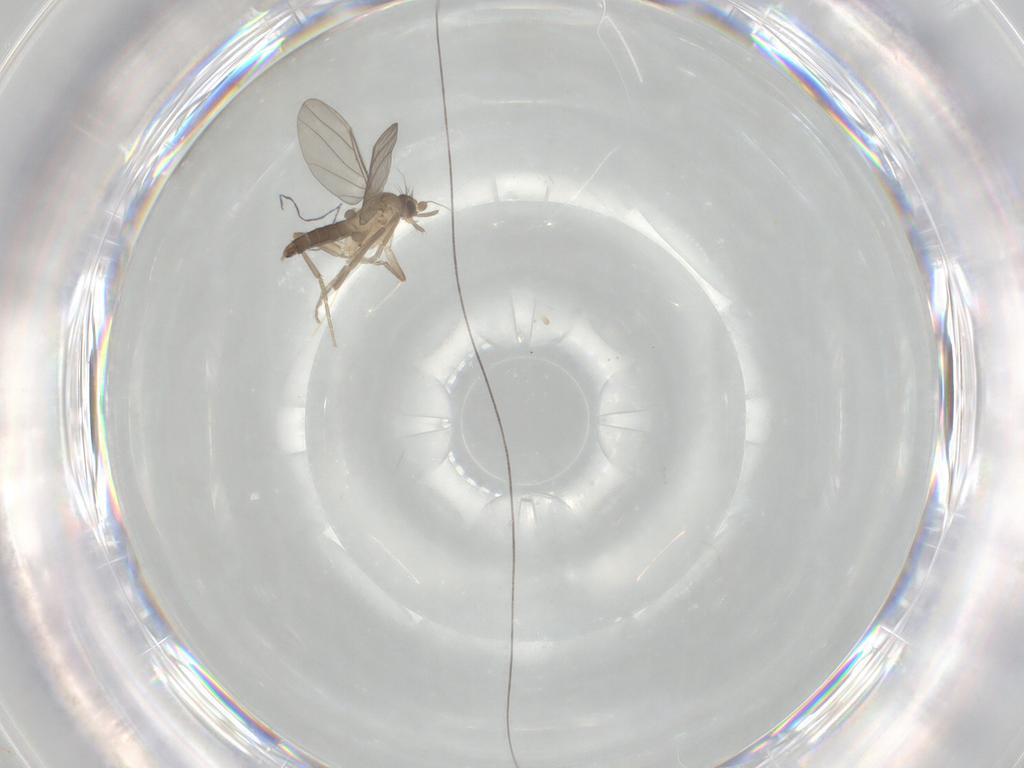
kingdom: Animalia
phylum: Arthropoda
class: Insecta
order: Diptera
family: Phoridae
